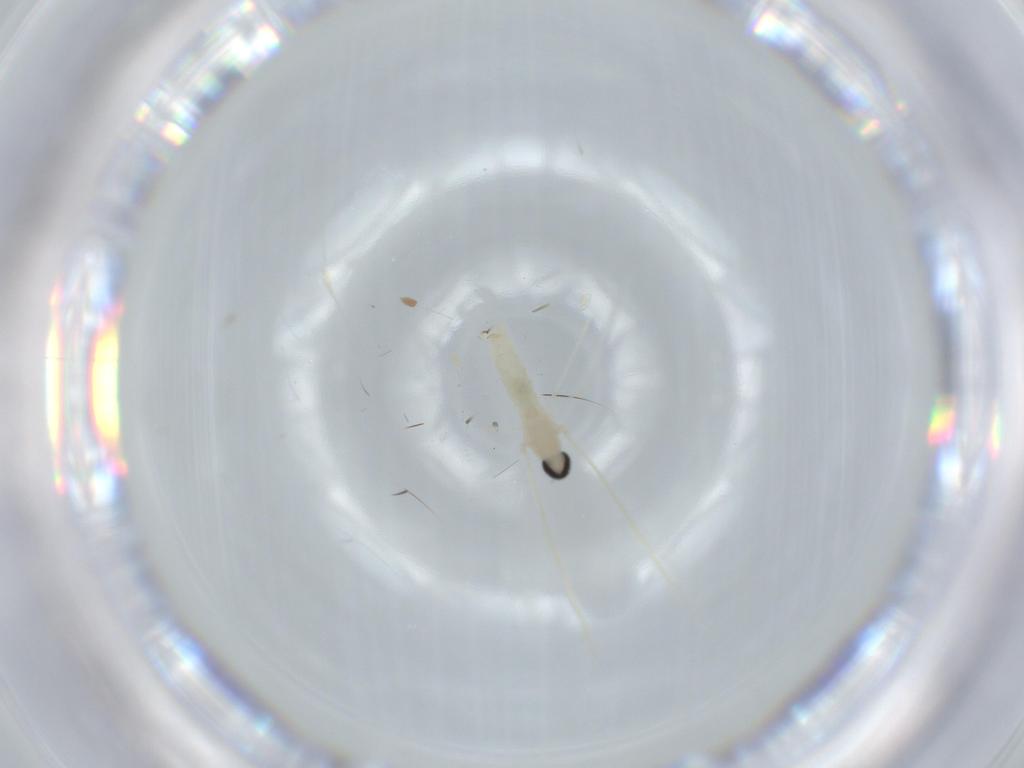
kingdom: Animalia
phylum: Arthropoda
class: Insecta
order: Diptera
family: Cecidomyiidae
